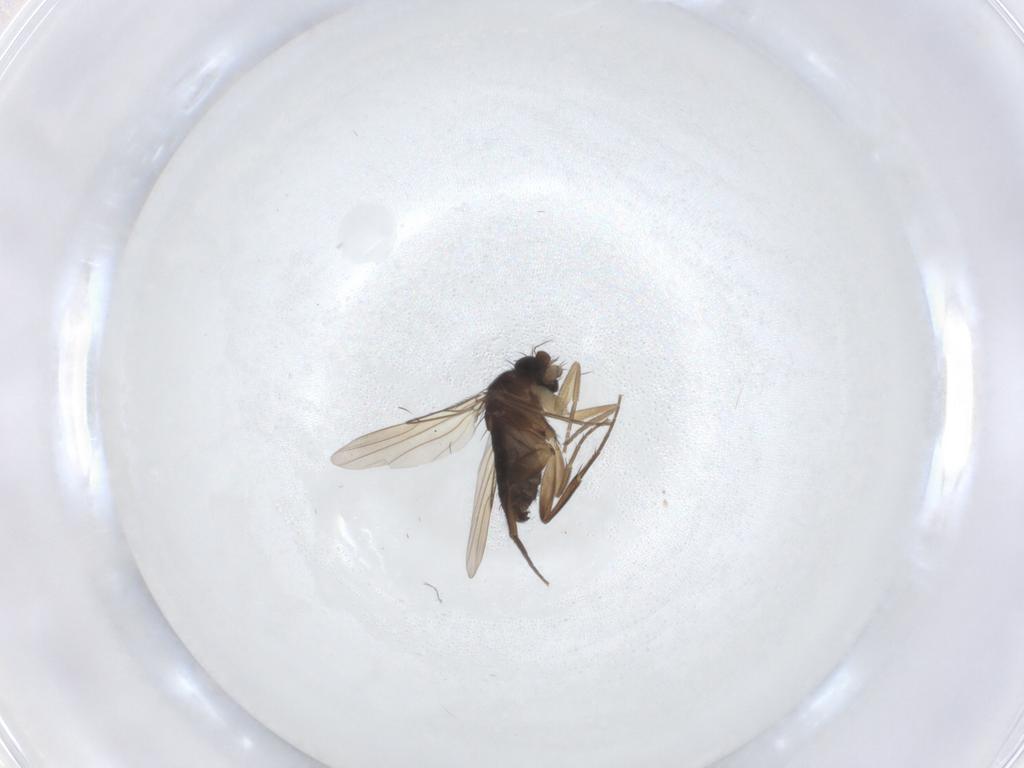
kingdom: Animalia
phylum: Arthropoda
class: Insecta
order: Diptera
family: Phoridae
